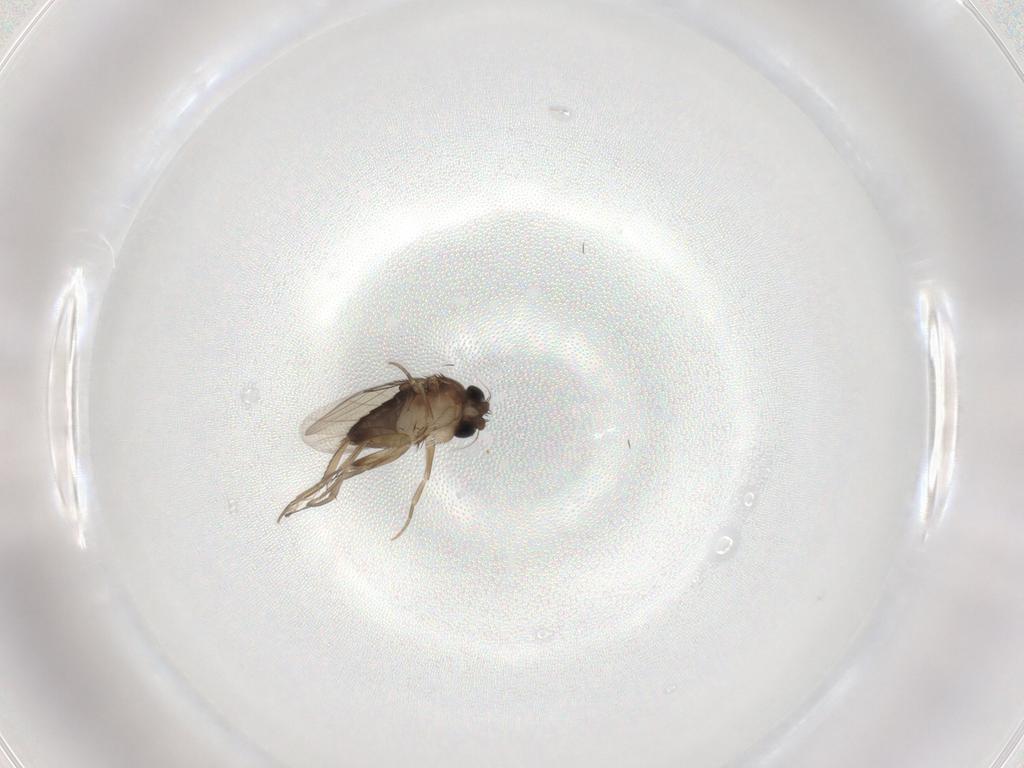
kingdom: Animalia
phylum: Arthropoda
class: Insecta
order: Diptera
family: Phoridae
